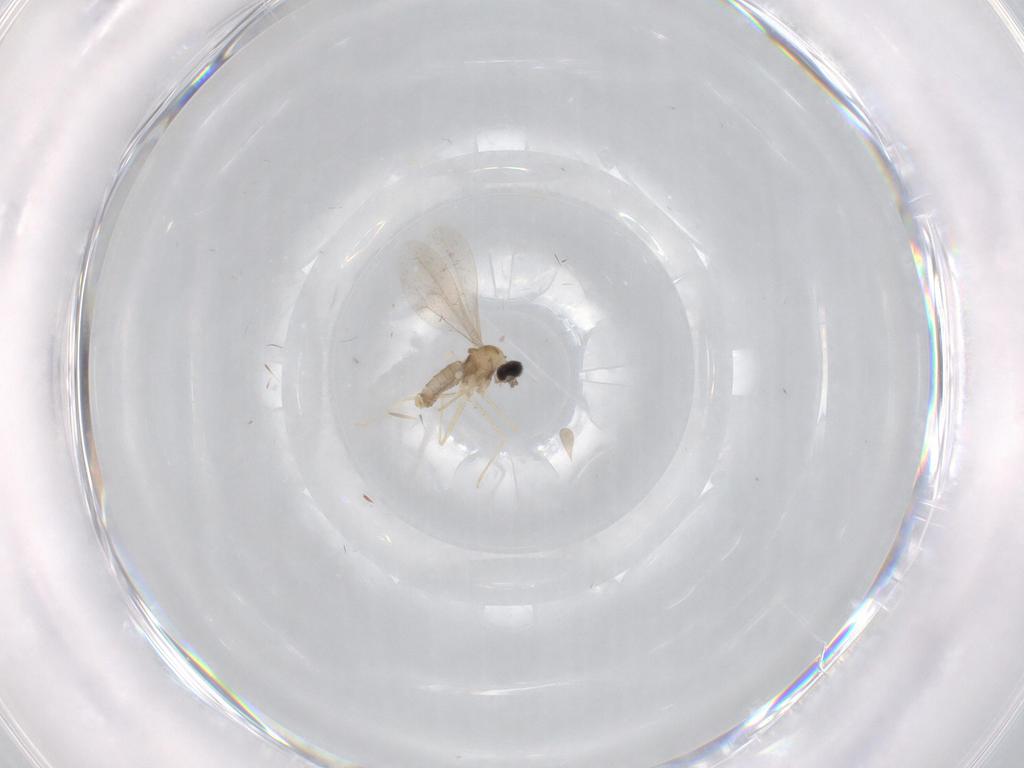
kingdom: Animalia
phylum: Arthropoda
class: Insecta
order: Diptera
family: Cecidomyiidae
